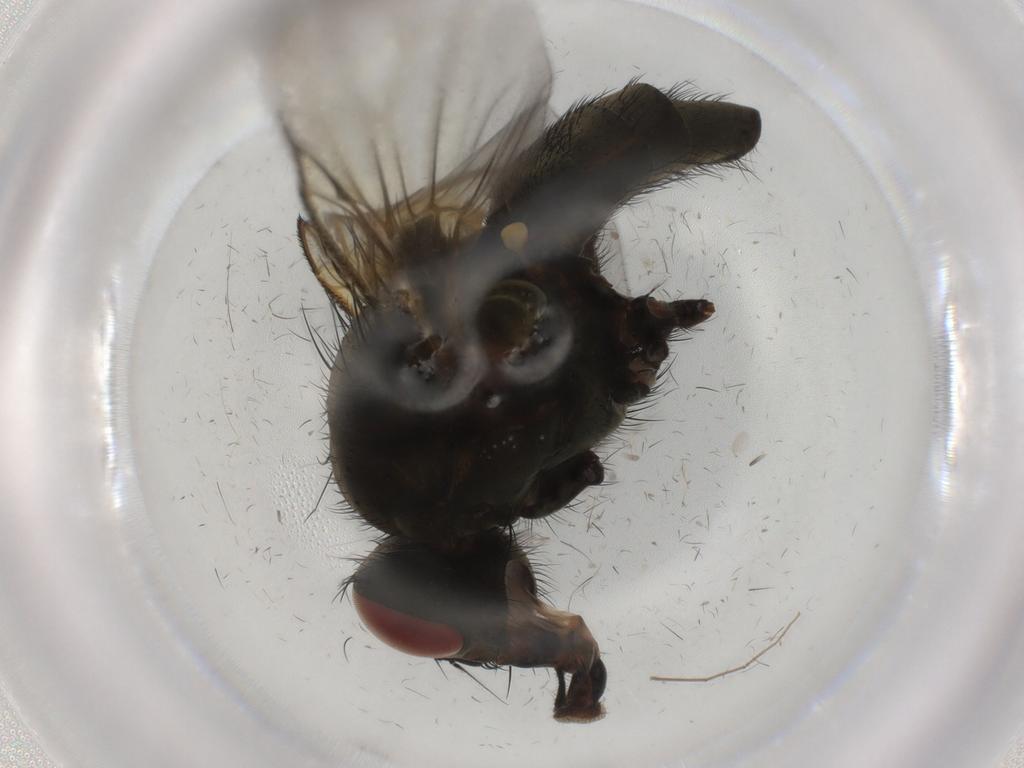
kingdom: Animalia
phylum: Arthropoda
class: Insecta
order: Diptera
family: Muscidae
